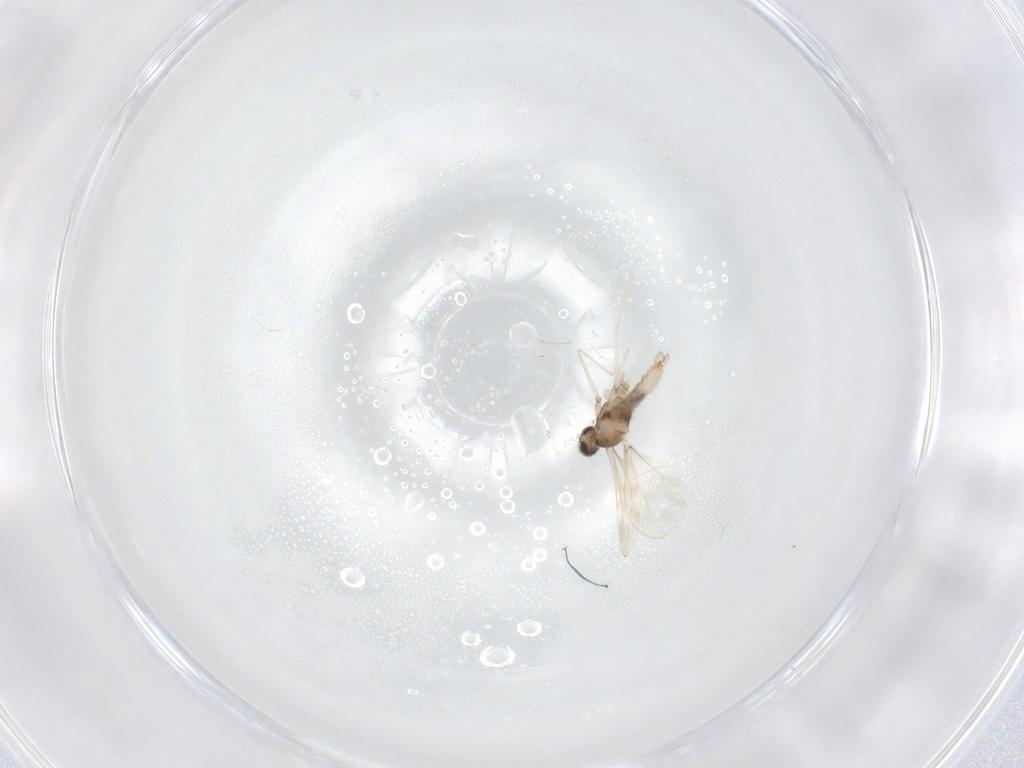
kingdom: Animalia
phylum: Arthropoda
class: Insecta
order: Diptera
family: Cecidomyiidae
